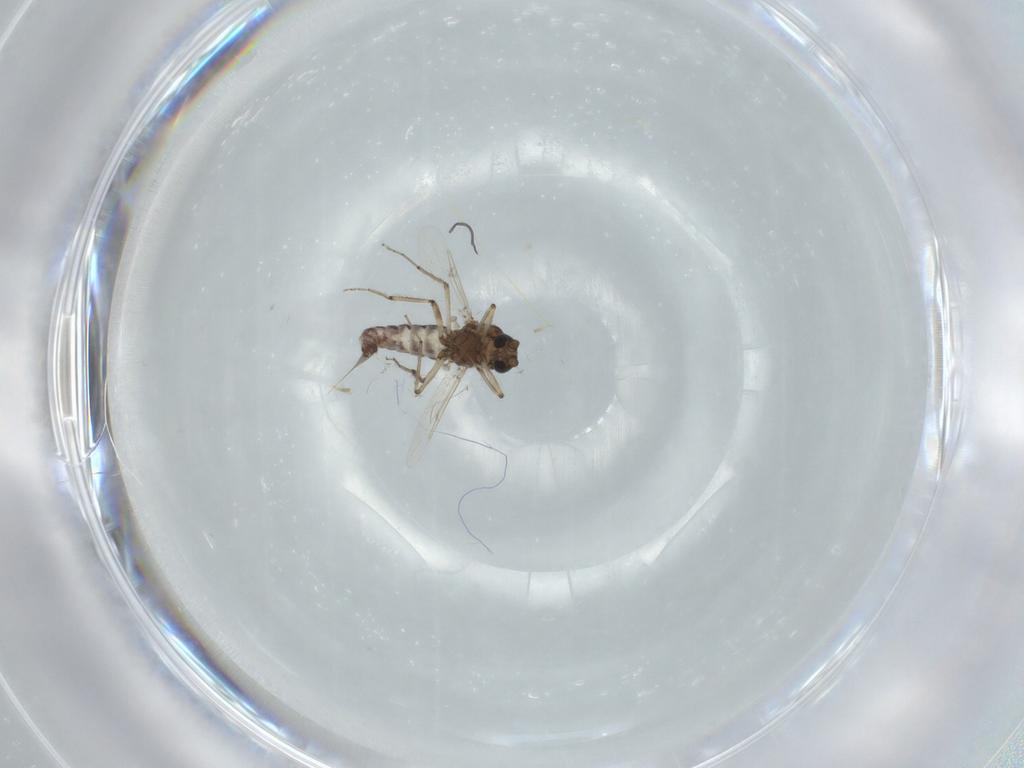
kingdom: Animalia
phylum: Arthropoda
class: Insecta
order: Diptera
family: Ceratopogonidae
